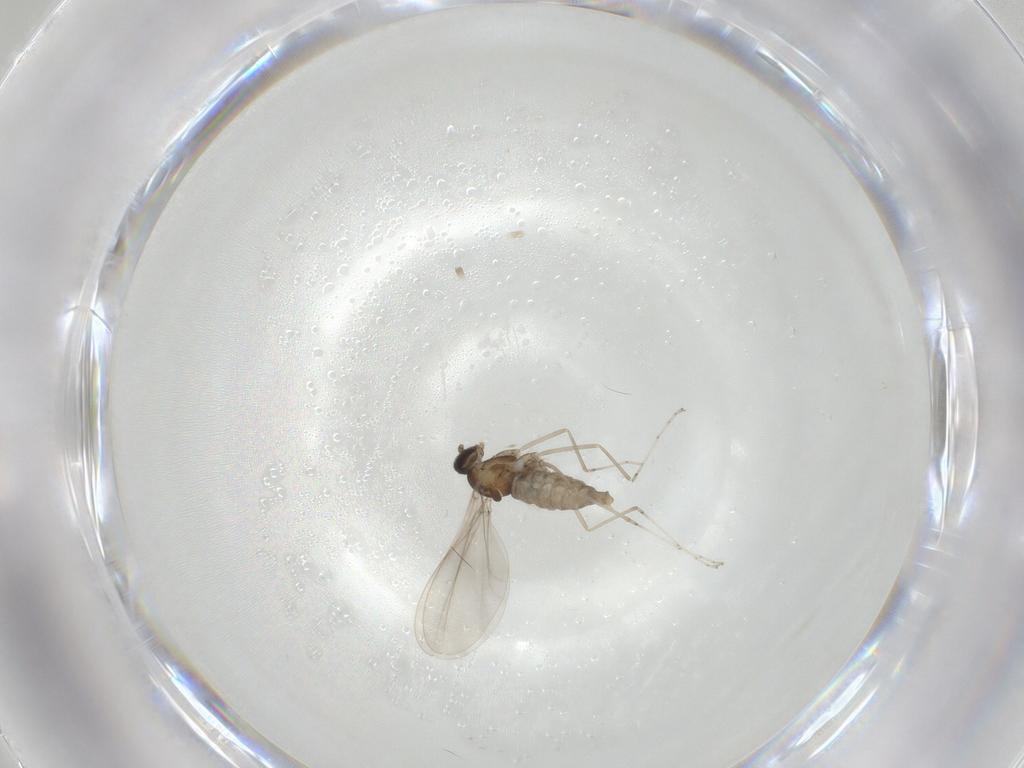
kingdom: Animalia
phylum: Arthropoda
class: Insecta
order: Diptera
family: Cecidomyiidae
